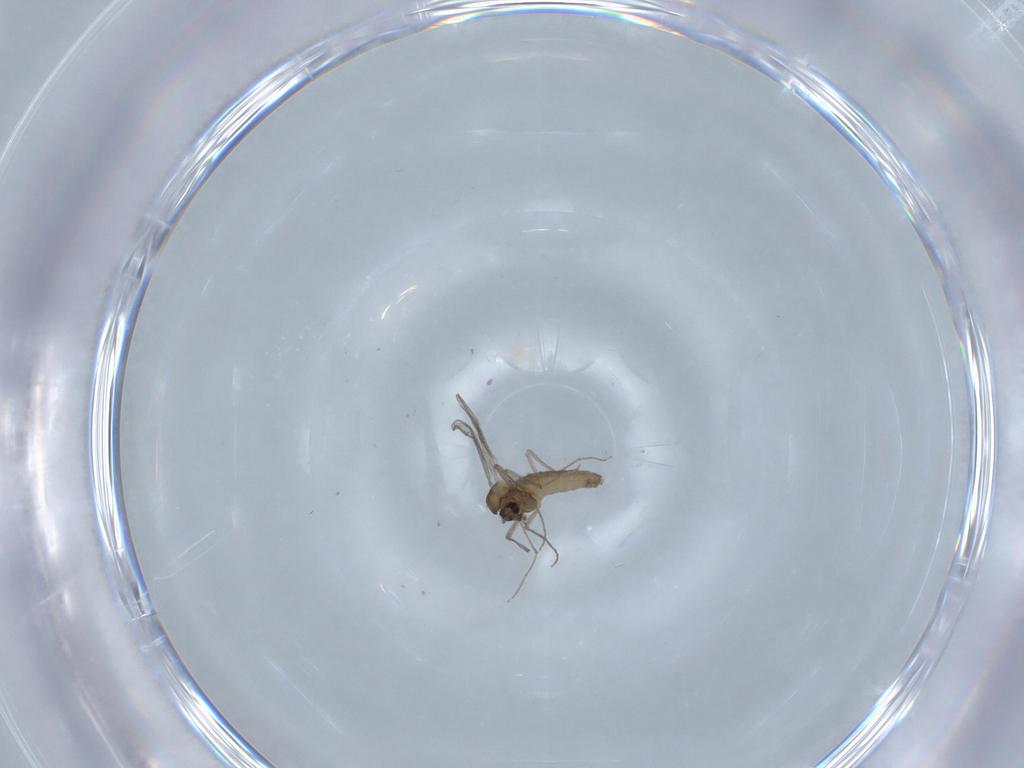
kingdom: Animalia
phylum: Arthropoda
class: Insecta
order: Diptera
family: Chironomidae
